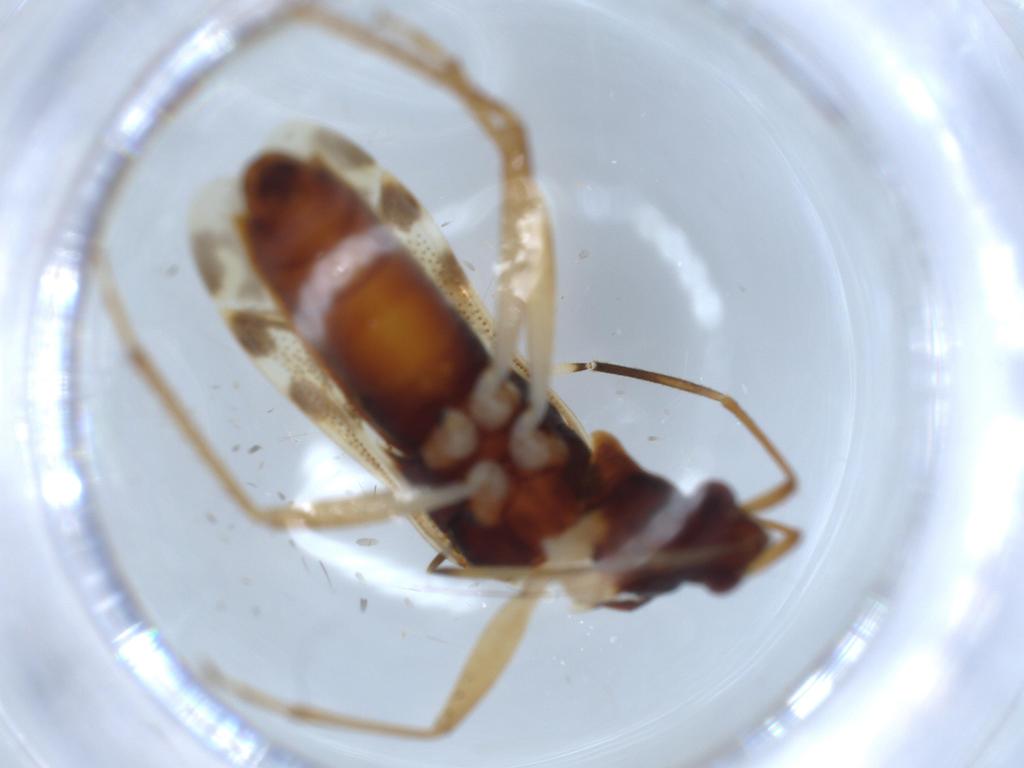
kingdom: Animalia
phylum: Arthropoda
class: Insecta
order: Hemiptera
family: Rhyparochromidae
